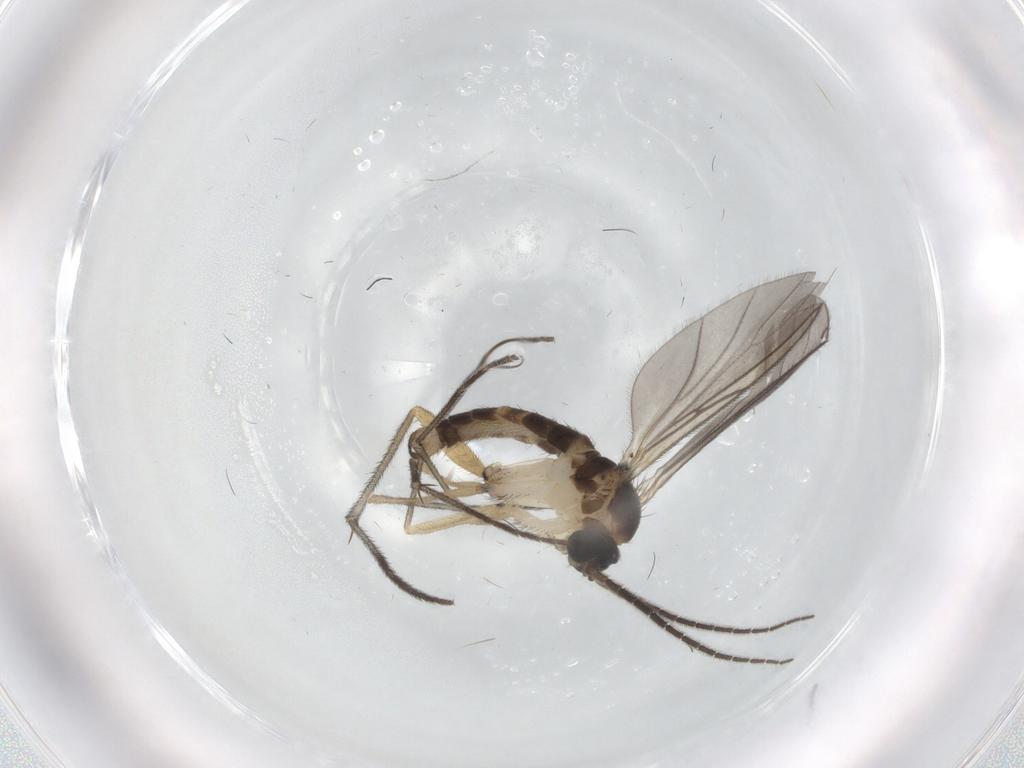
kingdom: Animalia
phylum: Arthropoda
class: Insecta
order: Diptera
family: Sciaridae
